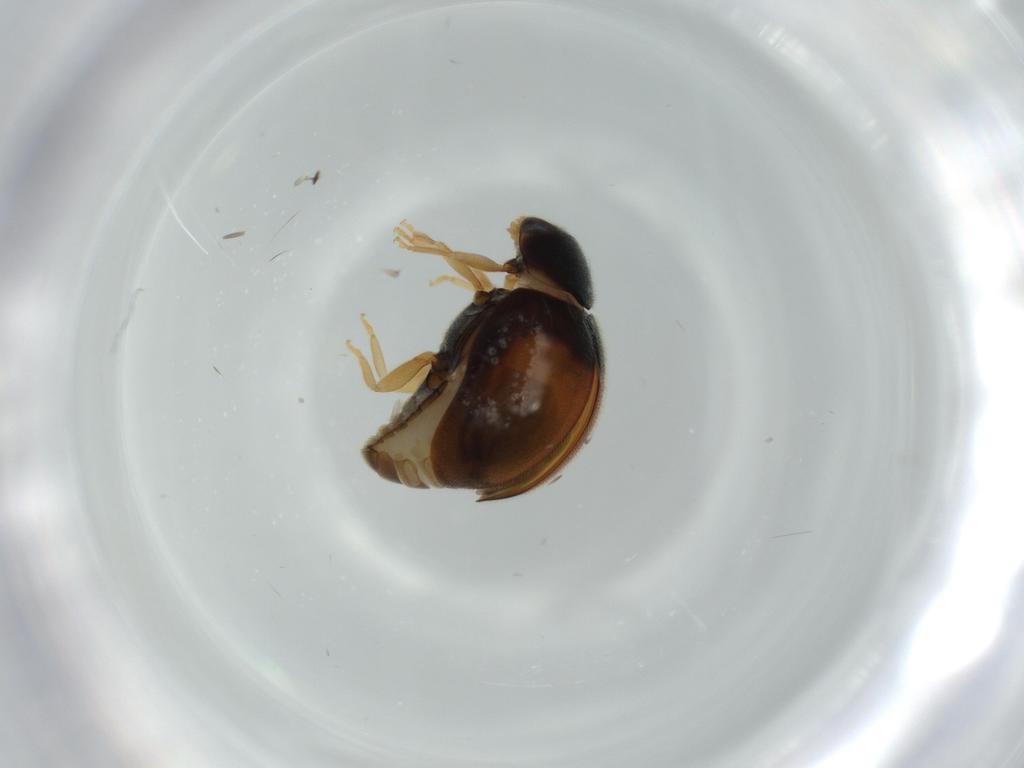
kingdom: Animalia
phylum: Arthropoda
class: Insecta
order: Coleoptera
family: Coccinellidae
